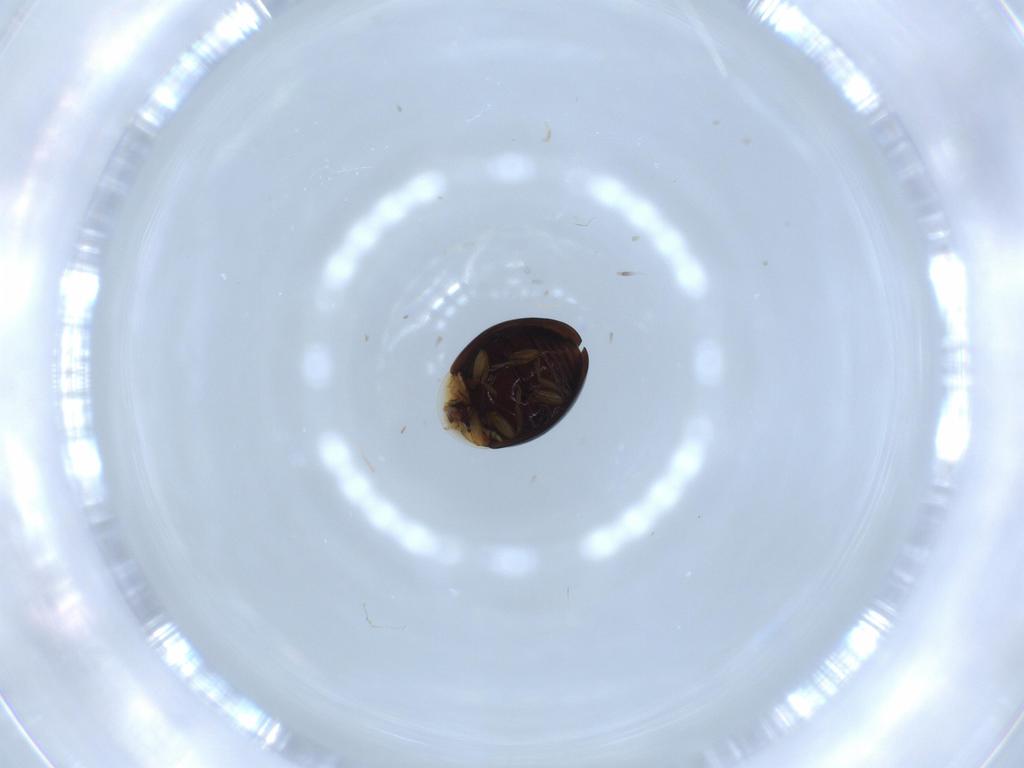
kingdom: Animalia
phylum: Arthropoda
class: Insecta
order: Coleoptera
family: Corylophidae
